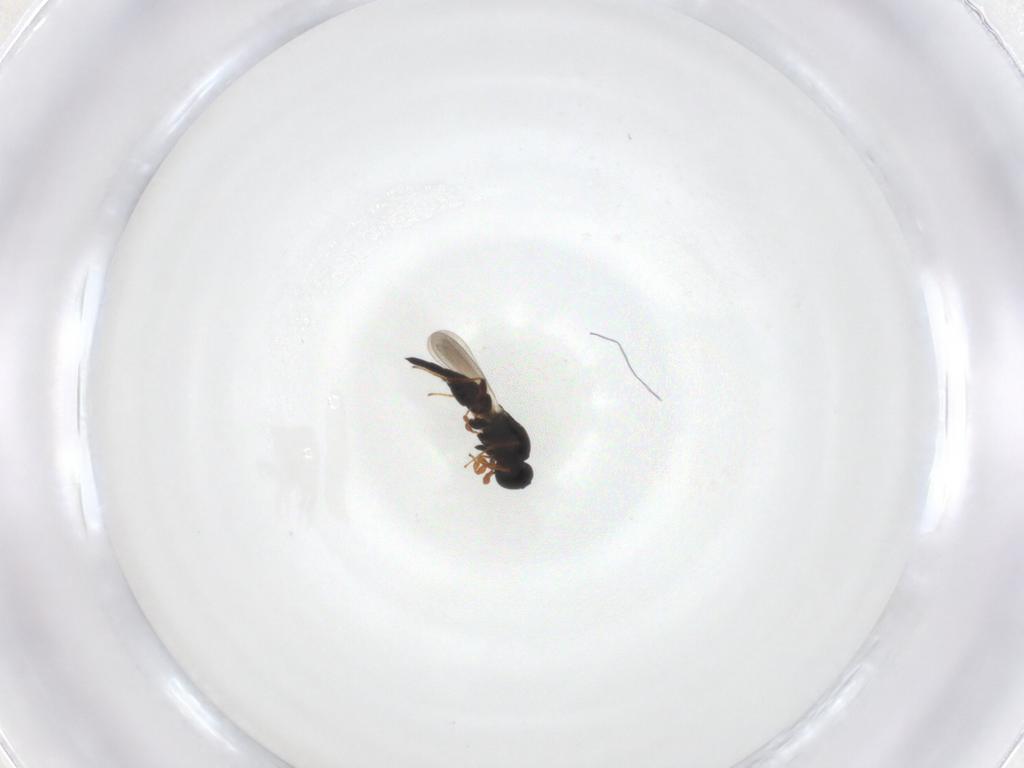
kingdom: Animalia
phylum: Arthropoda
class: Insecta
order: Hymenoptera
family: Platygastridae
